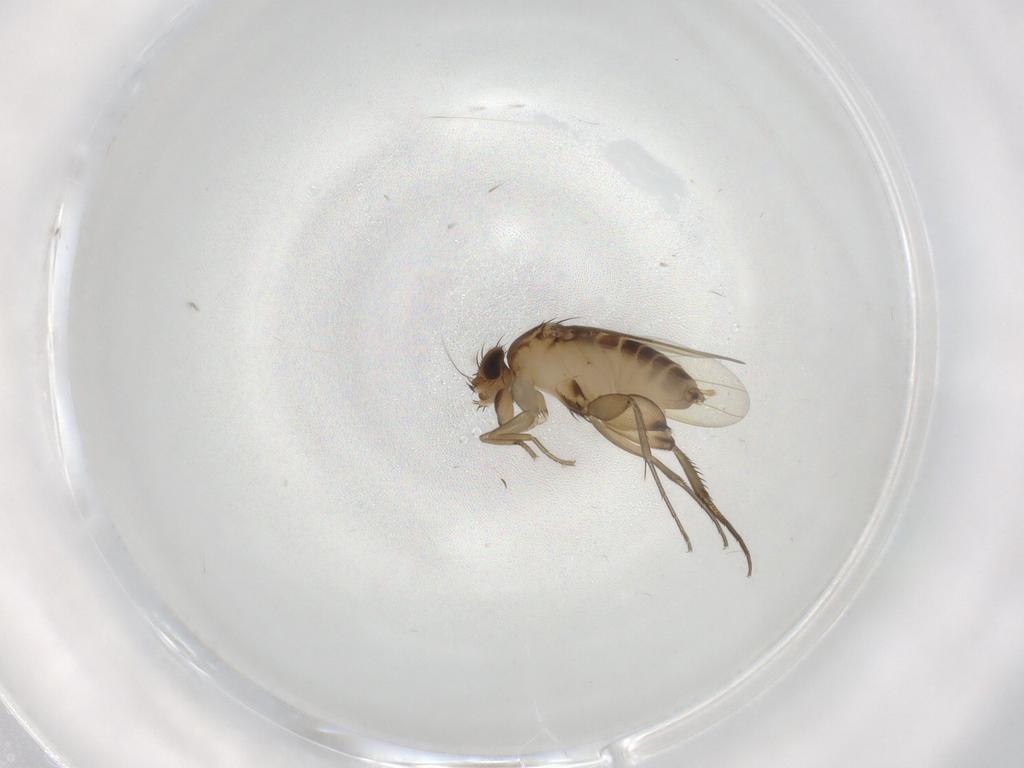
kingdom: Animalia
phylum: Arthropoda
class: Insecta
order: Diptera
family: Phoridae
